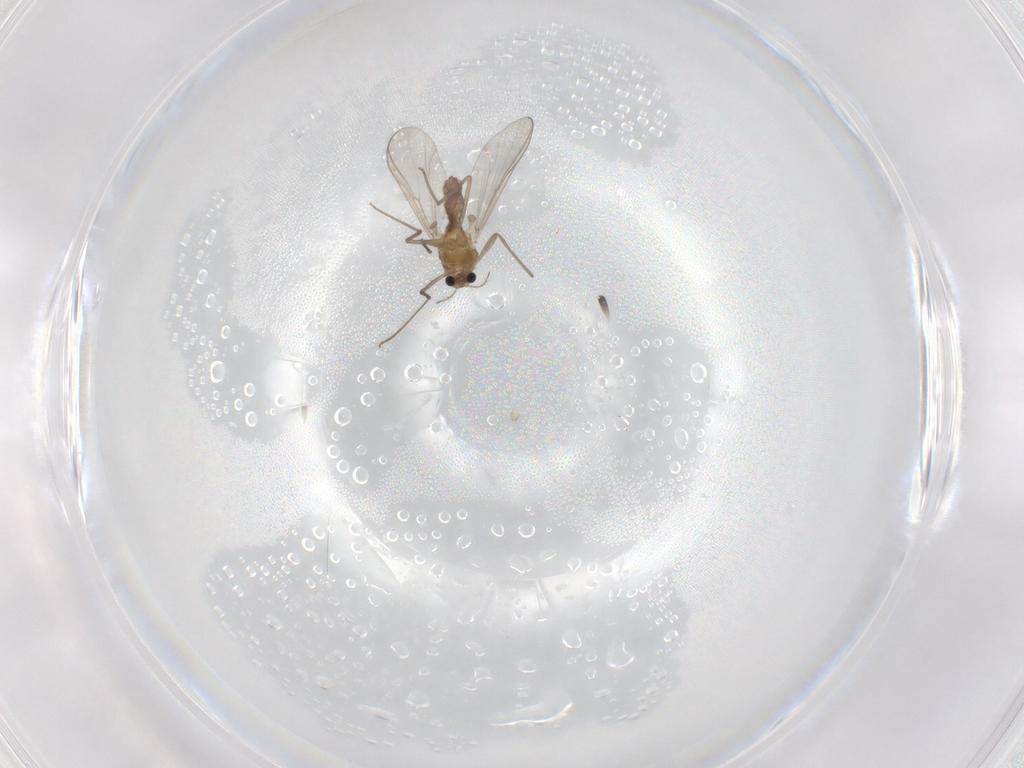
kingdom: Animalia
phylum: Arthropoda
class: Insecta
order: Diptera
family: Chironomidae
